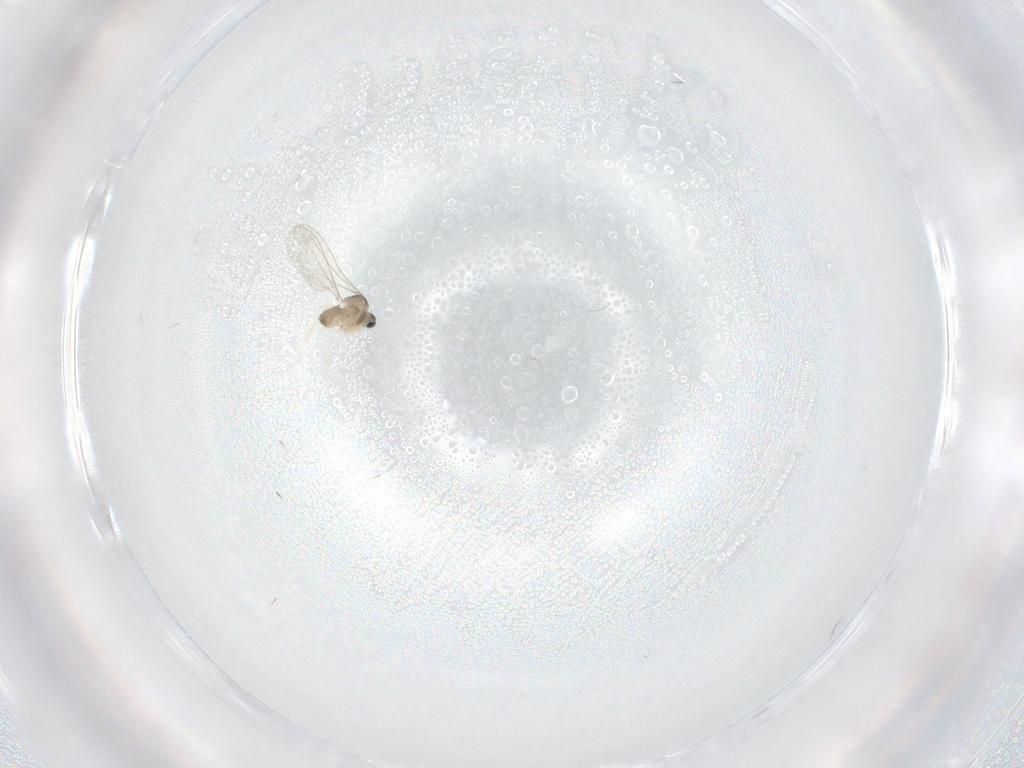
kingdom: Animalia
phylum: Arthropoda
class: Insecta
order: Diptera
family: Cecidomyiidae
